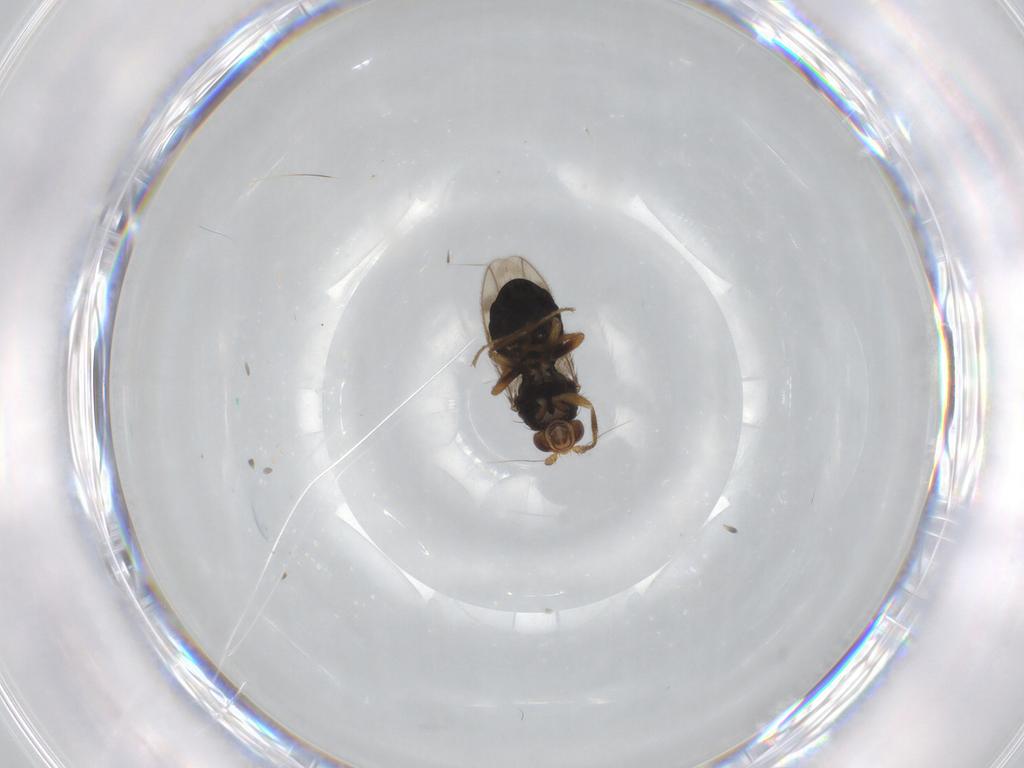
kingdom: Animalia
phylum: Arthropoda
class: Insecta
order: Diptera
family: Sphaeroceridae
